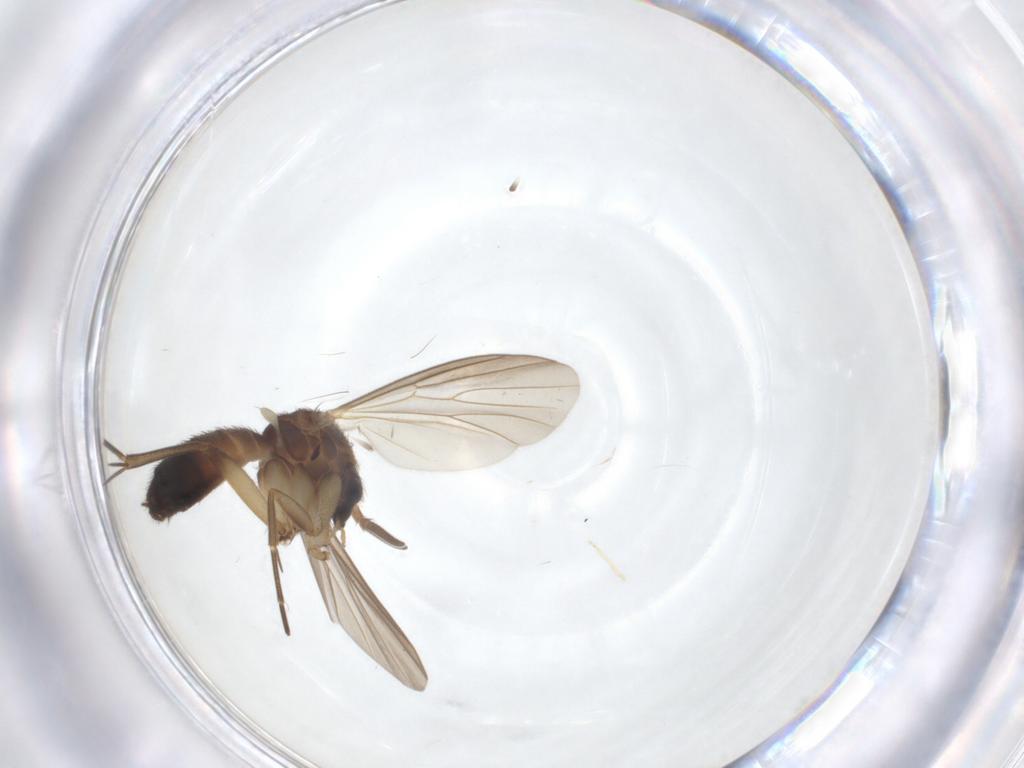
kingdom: Animalia
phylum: Arthropoda
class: Insecta
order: Diptera
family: Mycetophilidae
